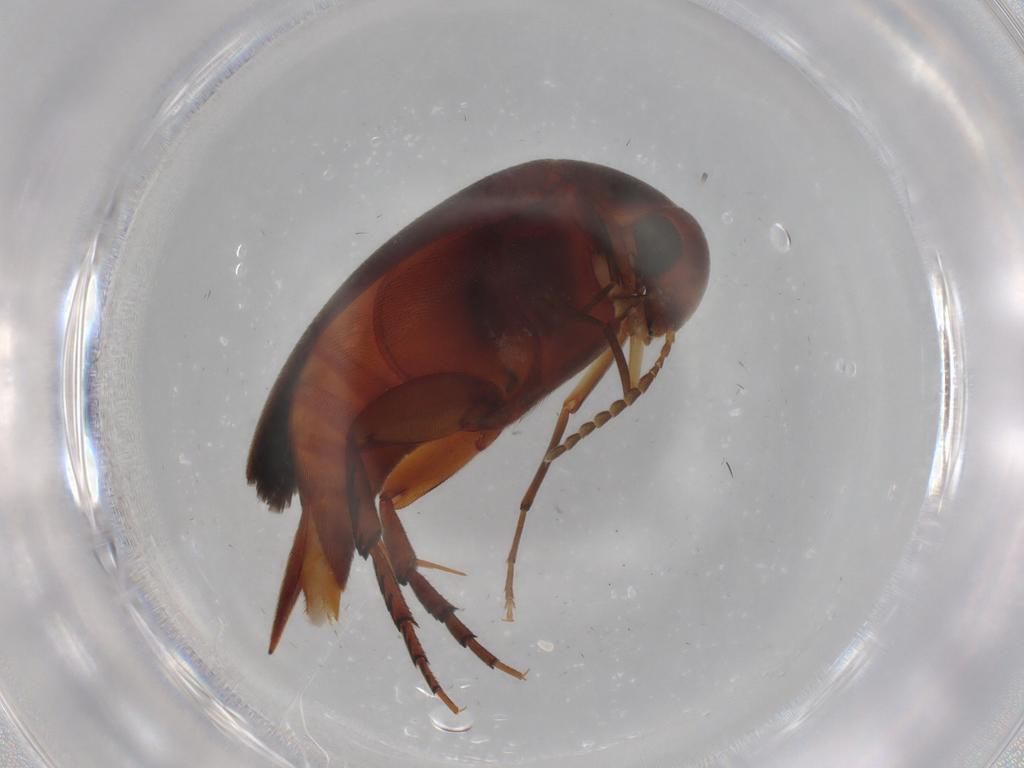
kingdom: Animalia
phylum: Arthropoda
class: Insecta
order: Coleoptera
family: Mordellidae
